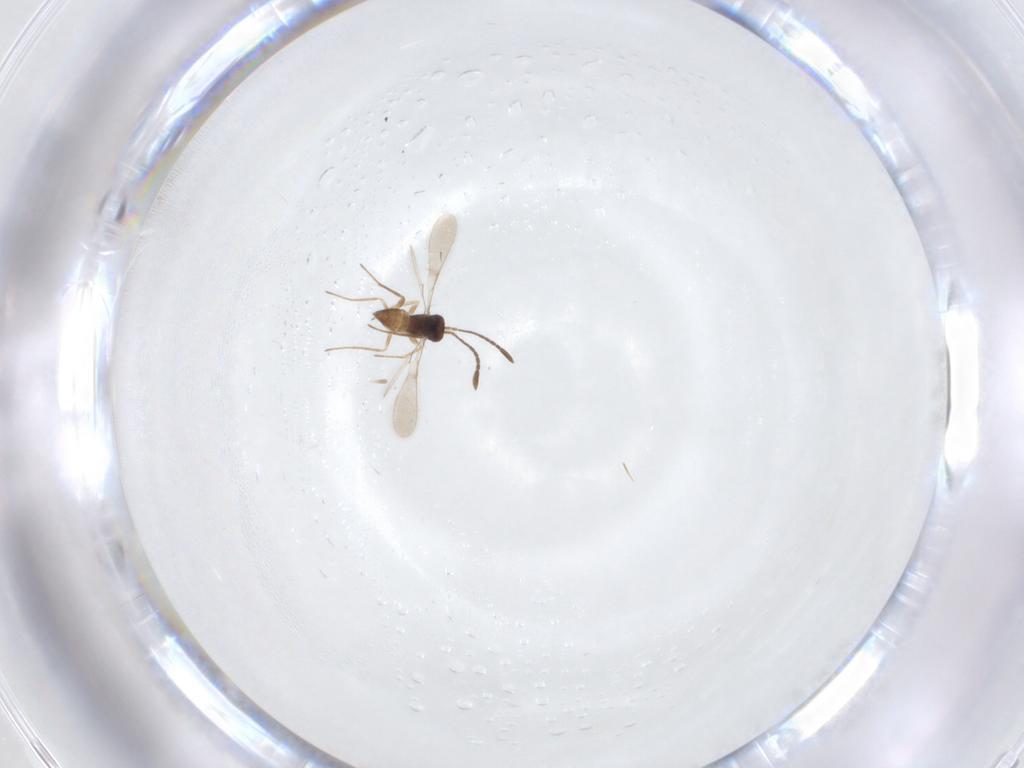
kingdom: Animalia
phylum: Arthropoda
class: Insecta
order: Hymenoptera
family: Mymaridae
